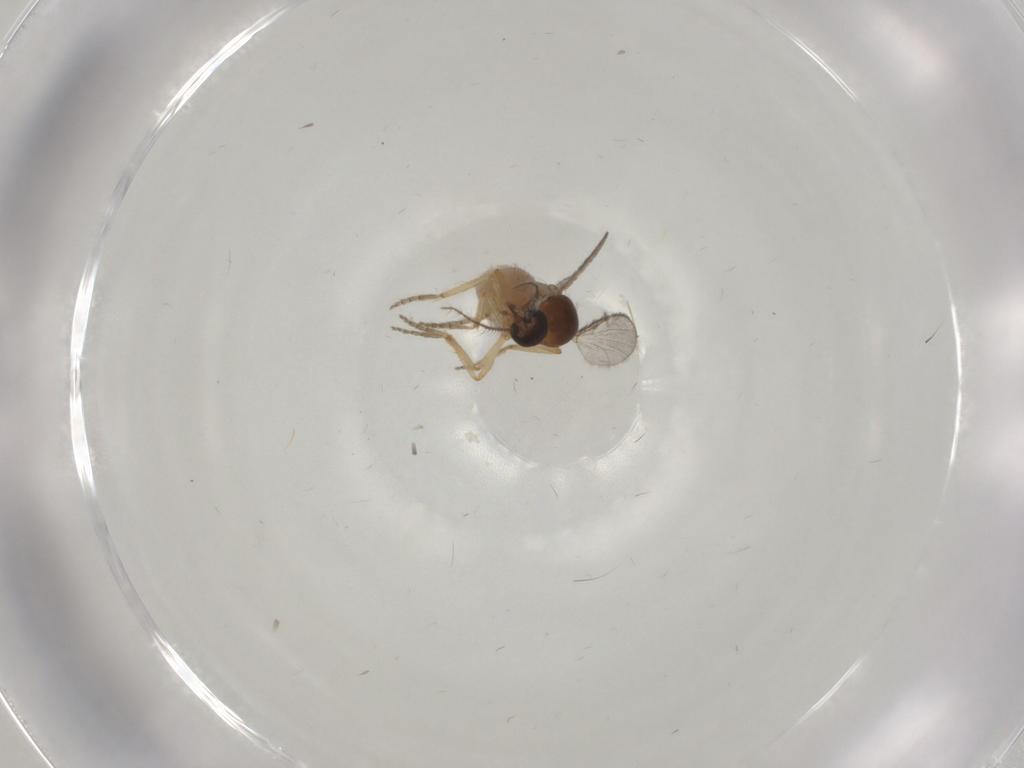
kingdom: Animalia
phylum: Arthropoda
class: Insecta
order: Diptera
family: Ceratopogonidae
